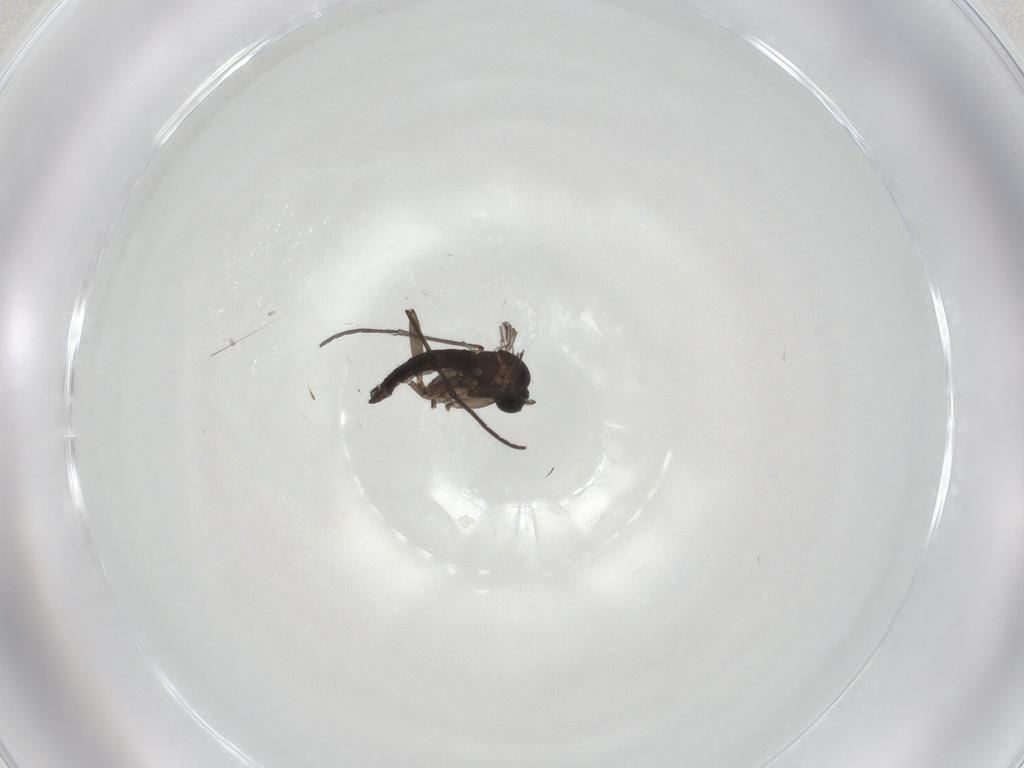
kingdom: Animalia
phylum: Arthropoda
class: Insecta
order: Diptera
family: Sciaridae
